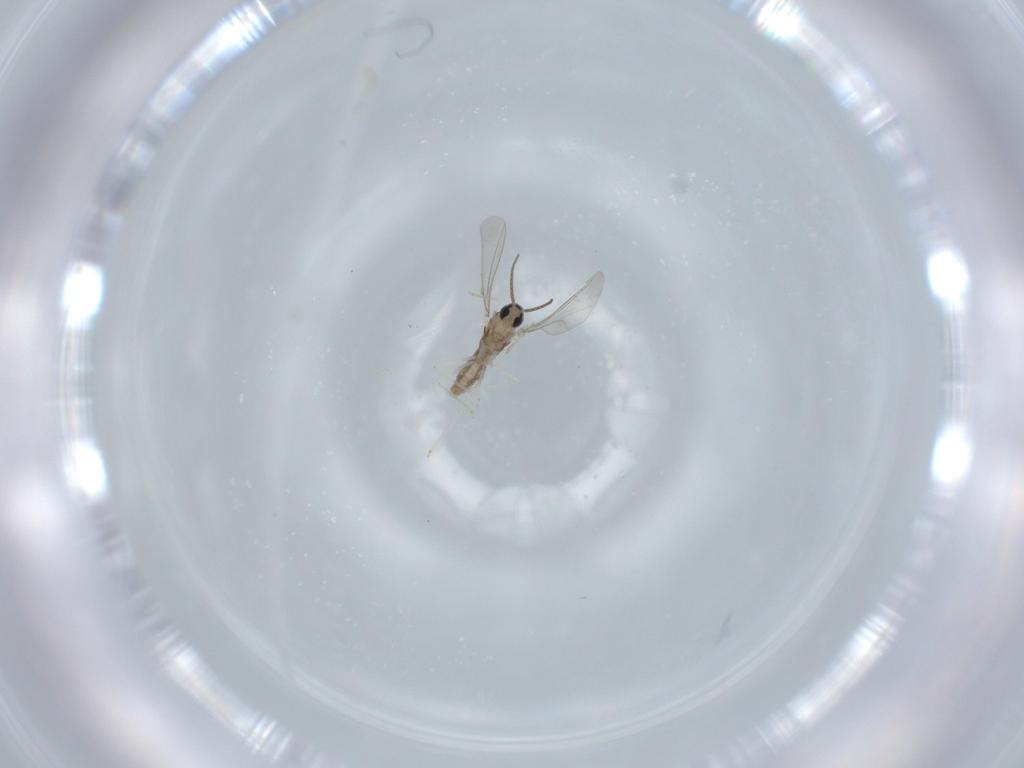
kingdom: Animalia
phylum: Arthropoda
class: Insecta
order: Diptera
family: Cecidomyiidae
